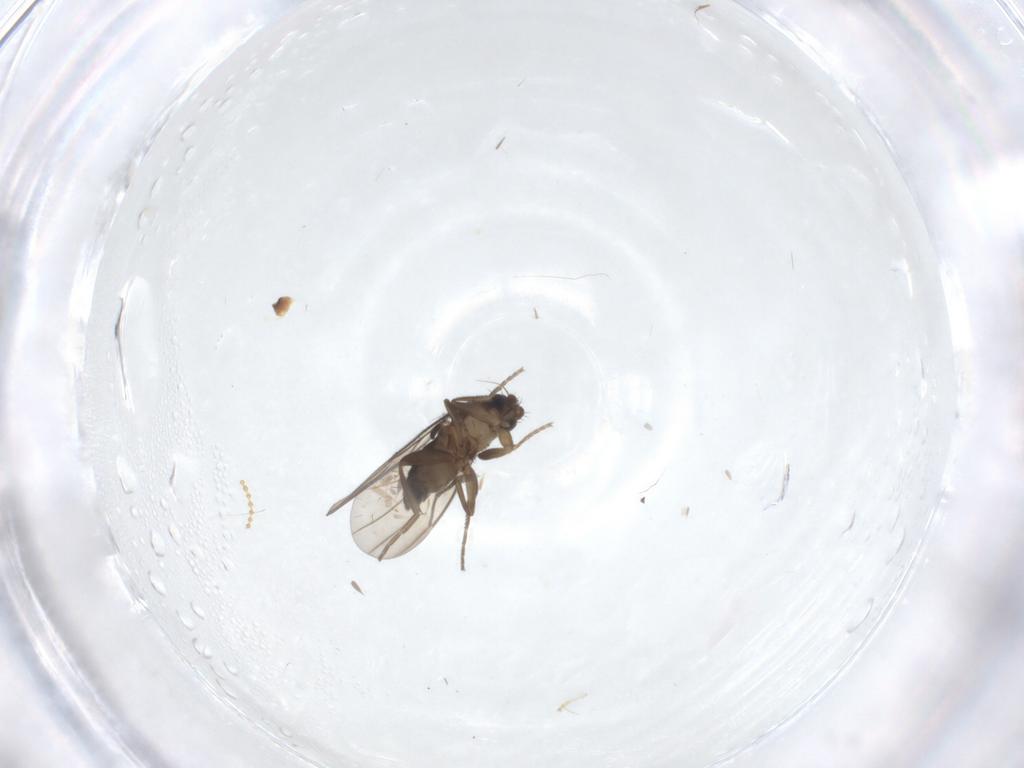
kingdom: Animalia
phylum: Arthropoda
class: Insecta
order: Diptera
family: Phoridae
